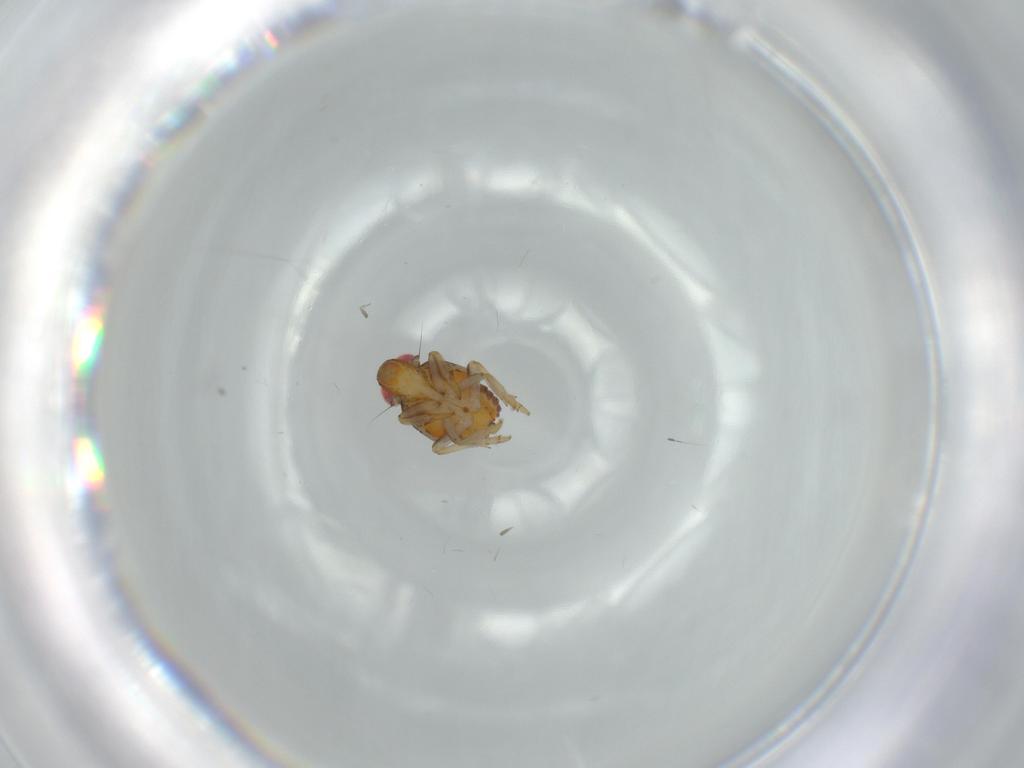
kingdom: Animalia
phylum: Arthropoda
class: Insecta
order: Hemiptera
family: Issidae
